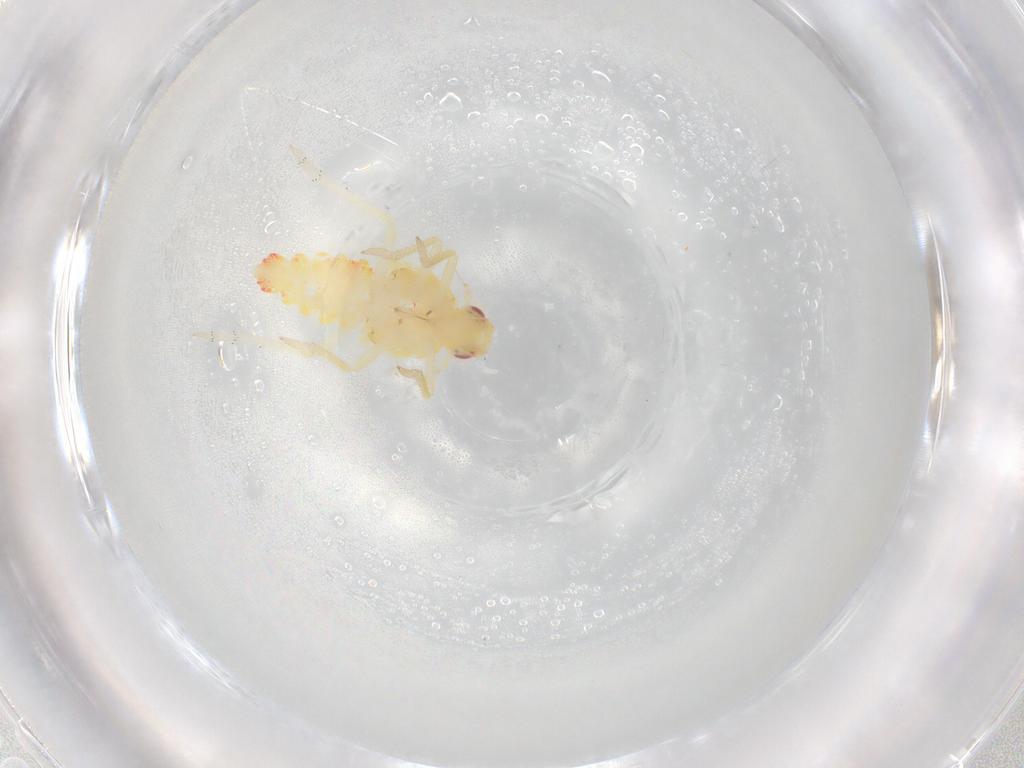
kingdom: Animalia
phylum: Arthropoda
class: Insecta
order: Hemiptera
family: Tropiduchidae
